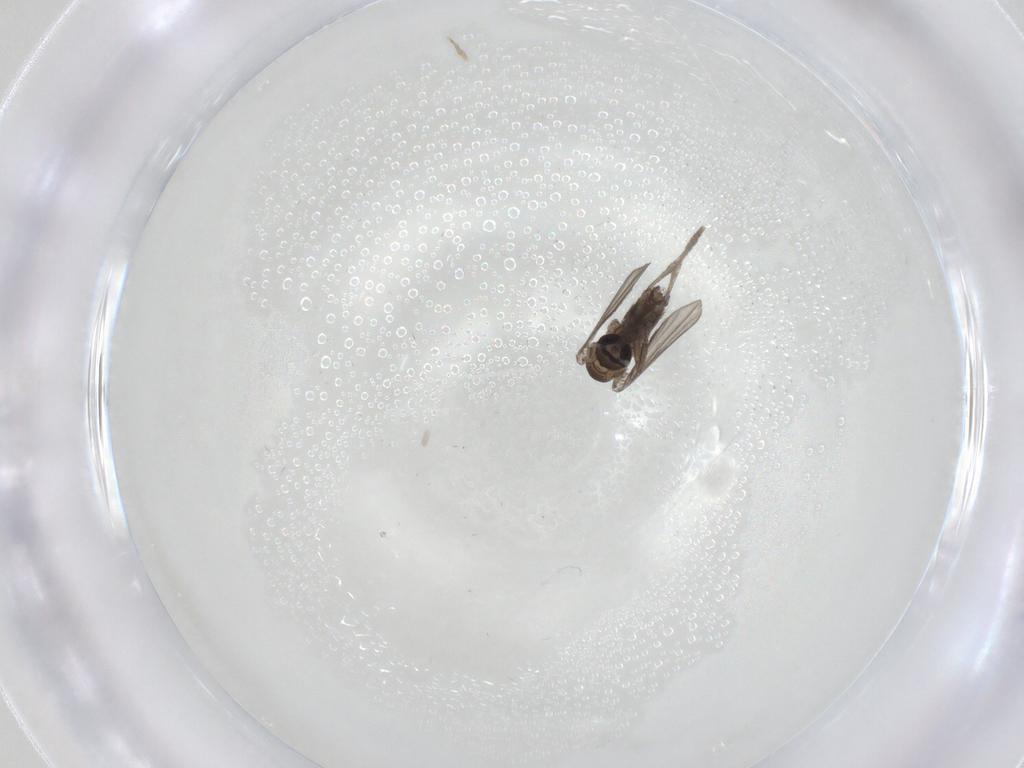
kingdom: Animalia
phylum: Arthropoda
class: Insecta
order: Diptera
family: Psychodidae
